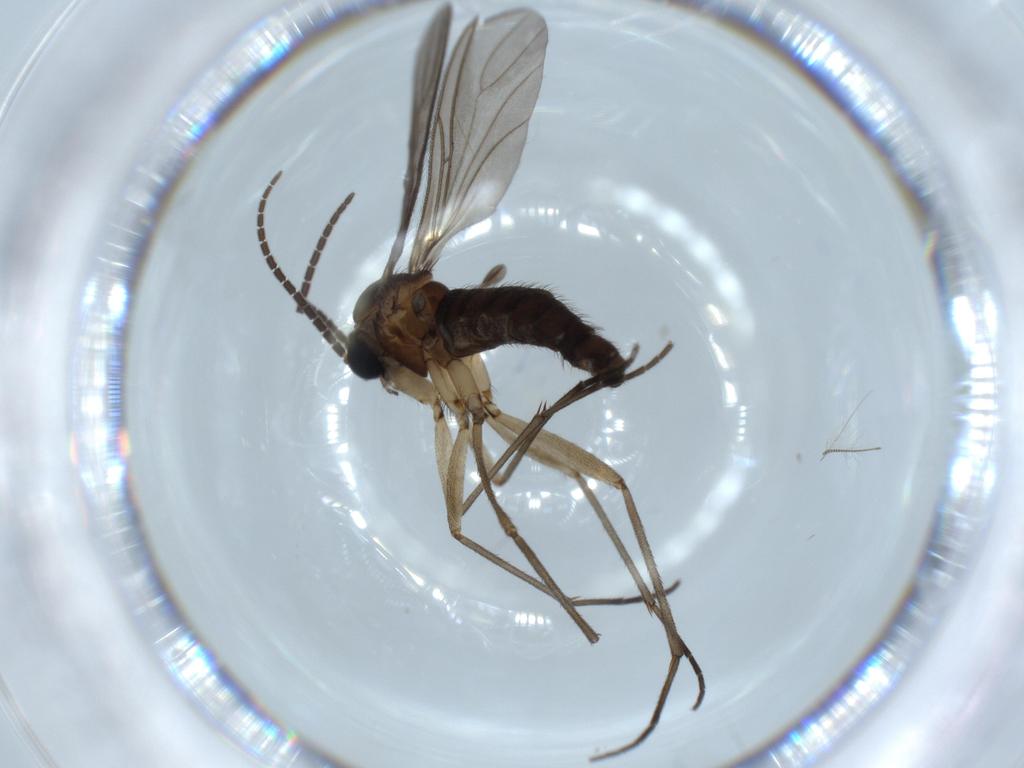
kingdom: Animalia
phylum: Arthropoda
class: Insecta
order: Diptera
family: Sciaridae
